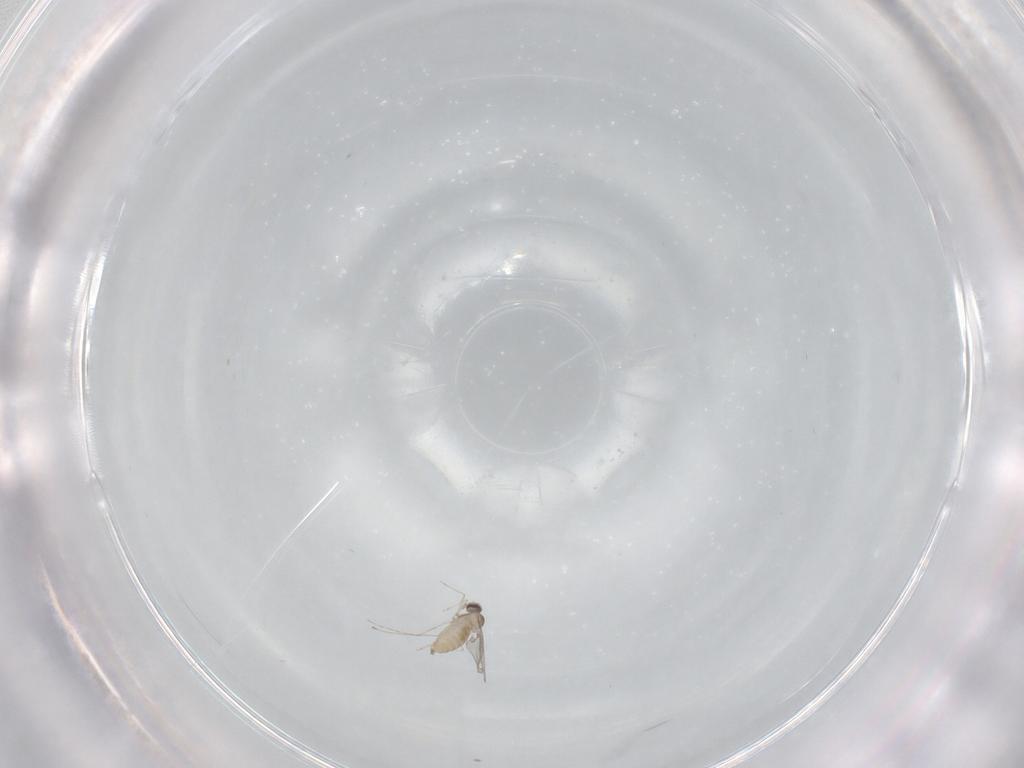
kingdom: Animalia
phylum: Arthropoda
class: Insecta
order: Diptera
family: Cecidomyiidae
